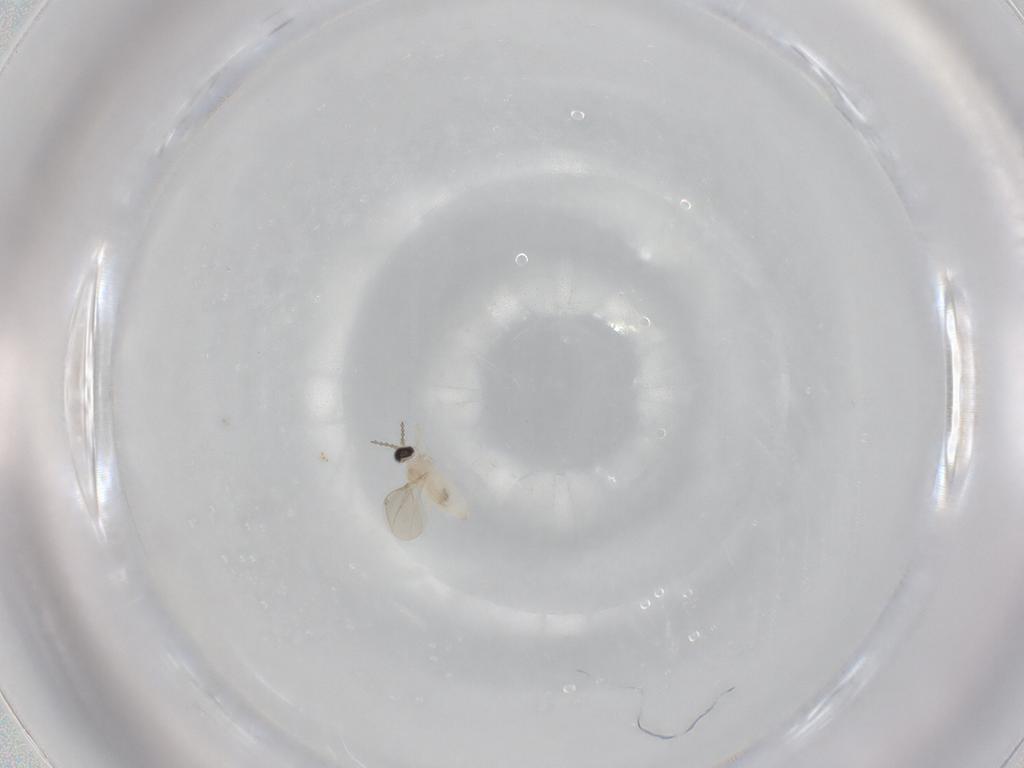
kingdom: Animalia
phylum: Arthropoda
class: Insecta
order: Diptera
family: Cecidomyiidae
